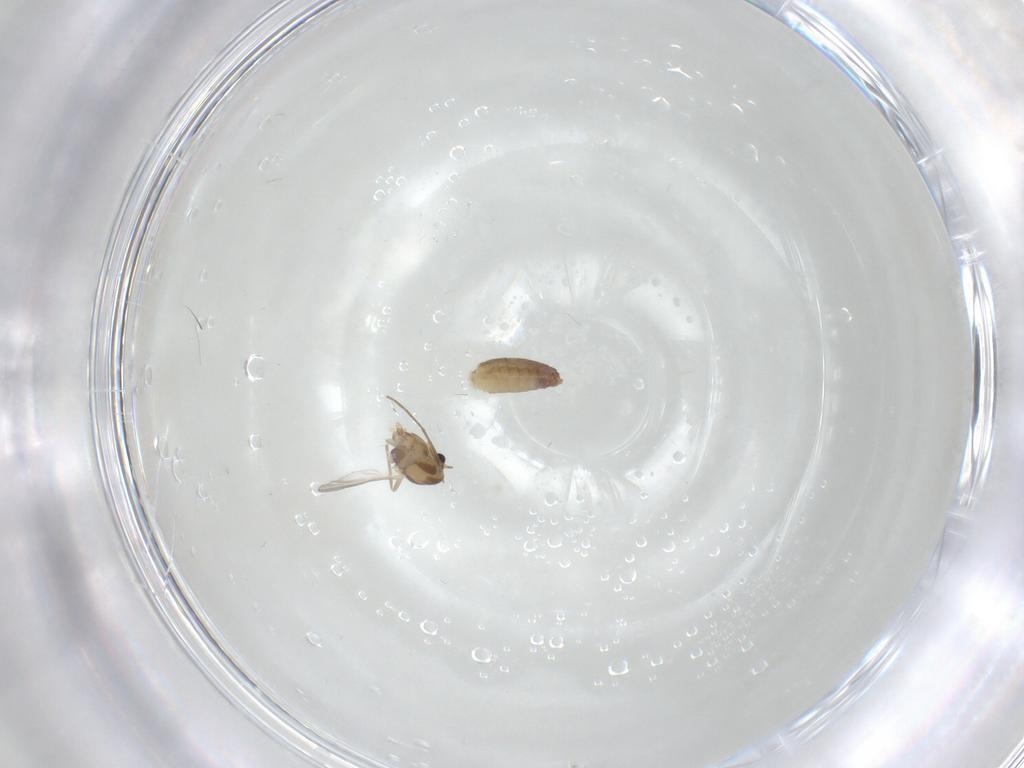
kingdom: Animalia
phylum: Arthropoda
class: Insecta
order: Diptera
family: Chironomidae
